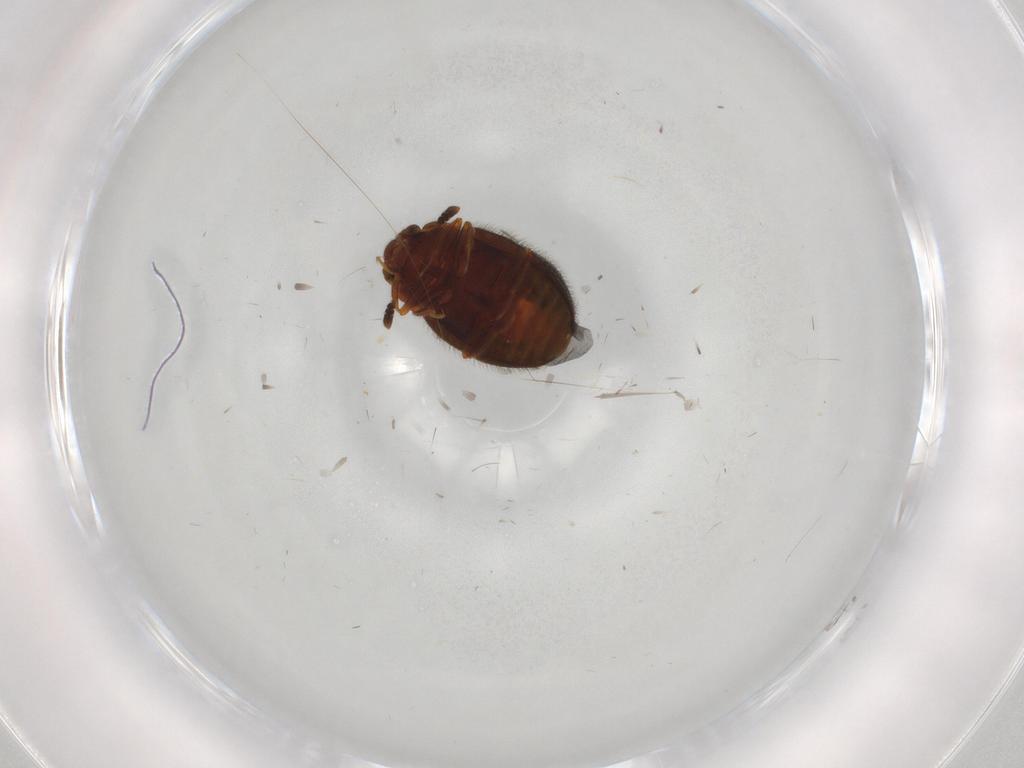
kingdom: Animalia
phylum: Arthropoda
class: Insecta
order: Coleoptera
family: Sphindidae
